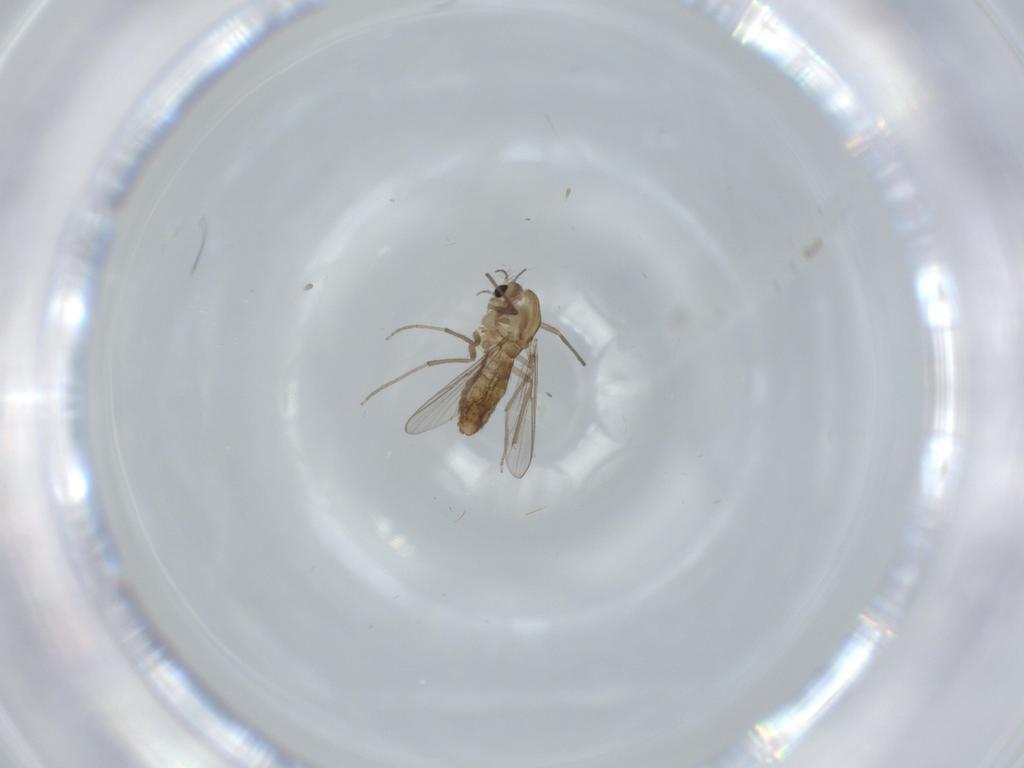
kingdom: Animalia
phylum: Arthropoda
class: Insecta
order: Diptera
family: Chironomidae
